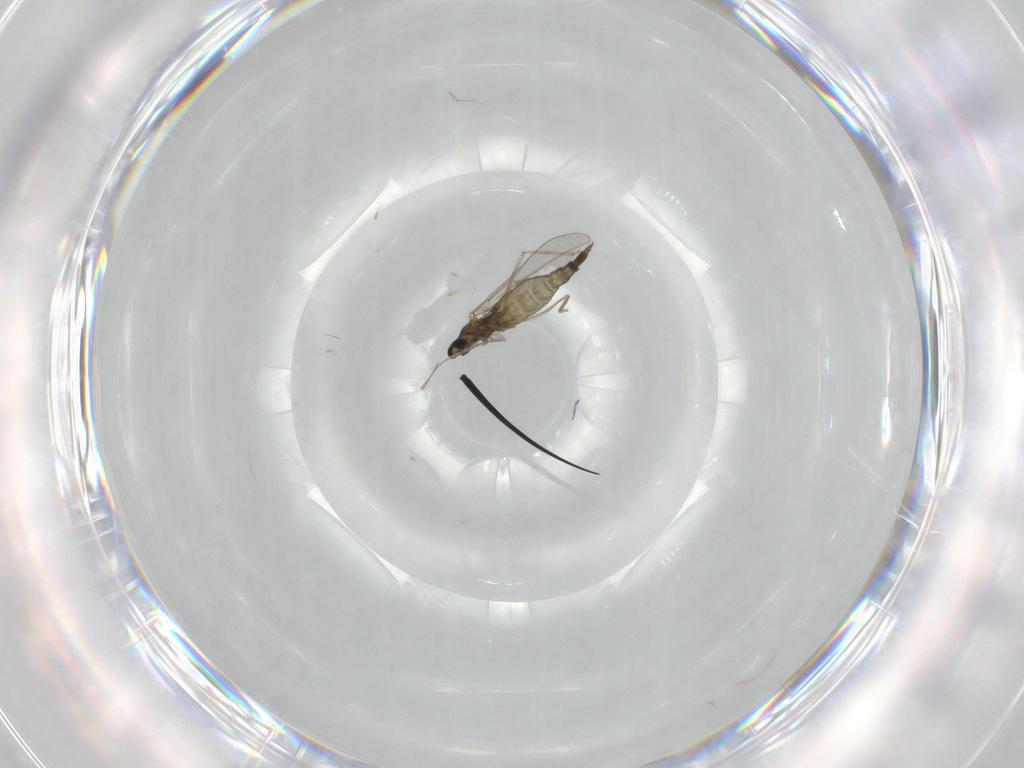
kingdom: Animalia
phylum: Arthropoda
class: Insecta
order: Diptera
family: Cecidomyiidae
